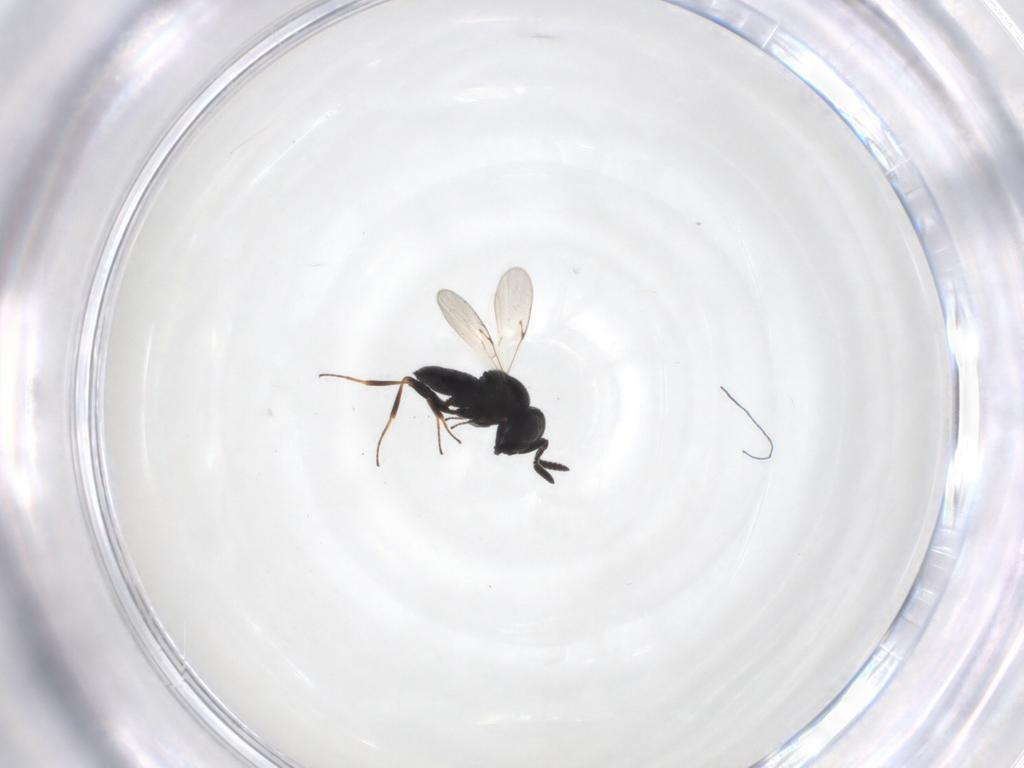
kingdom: Animalia
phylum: Arthropoda
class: Insecta
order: Hymenoptera
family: Scelionidae
